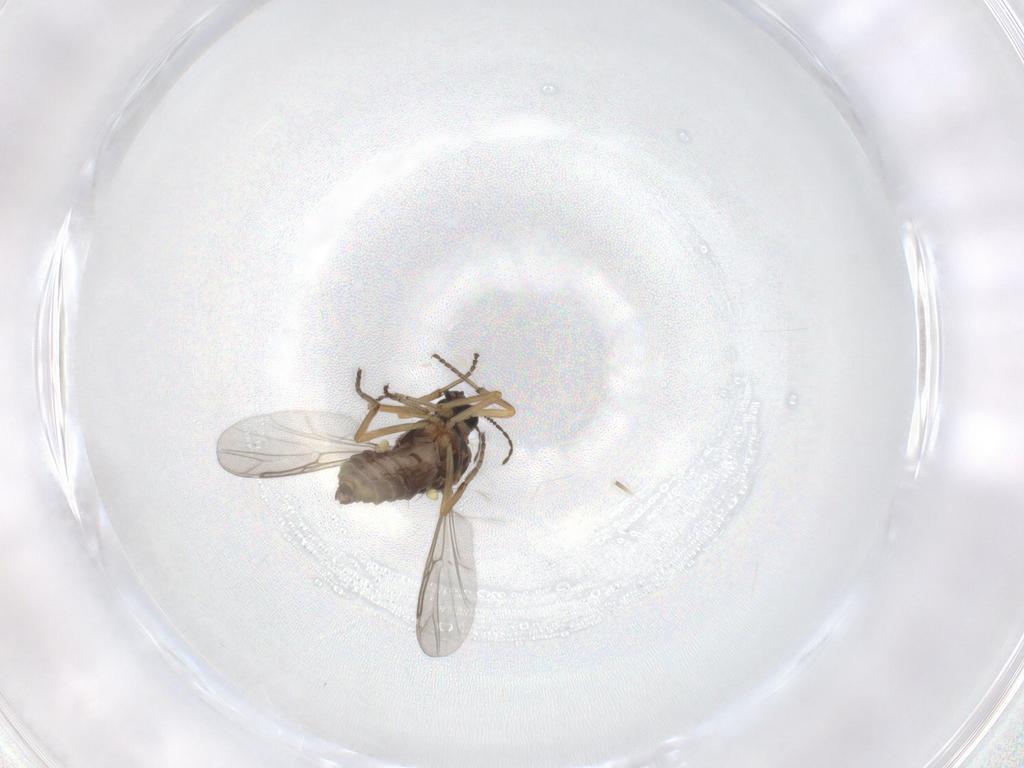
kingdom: Animalia
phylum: Arthropoda
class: Insecta
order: Diptera
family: Ceratopogonidae
